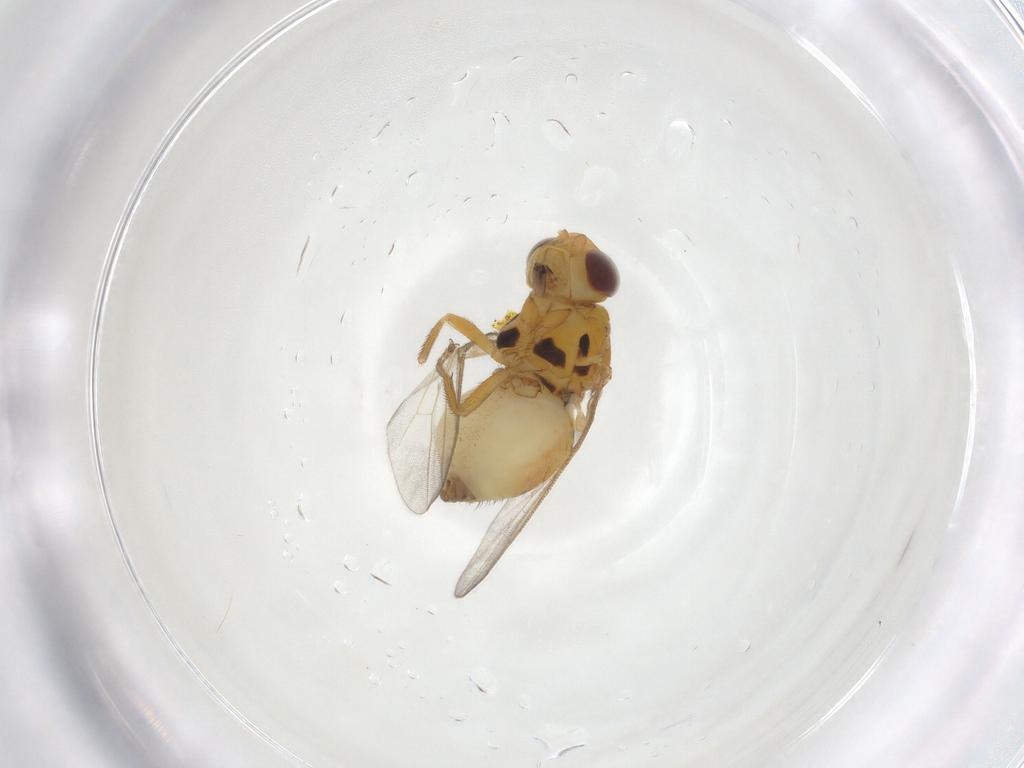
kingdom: Animalia
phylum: Arthropoda
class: Insecta
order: Diptera
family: Chloropidae
